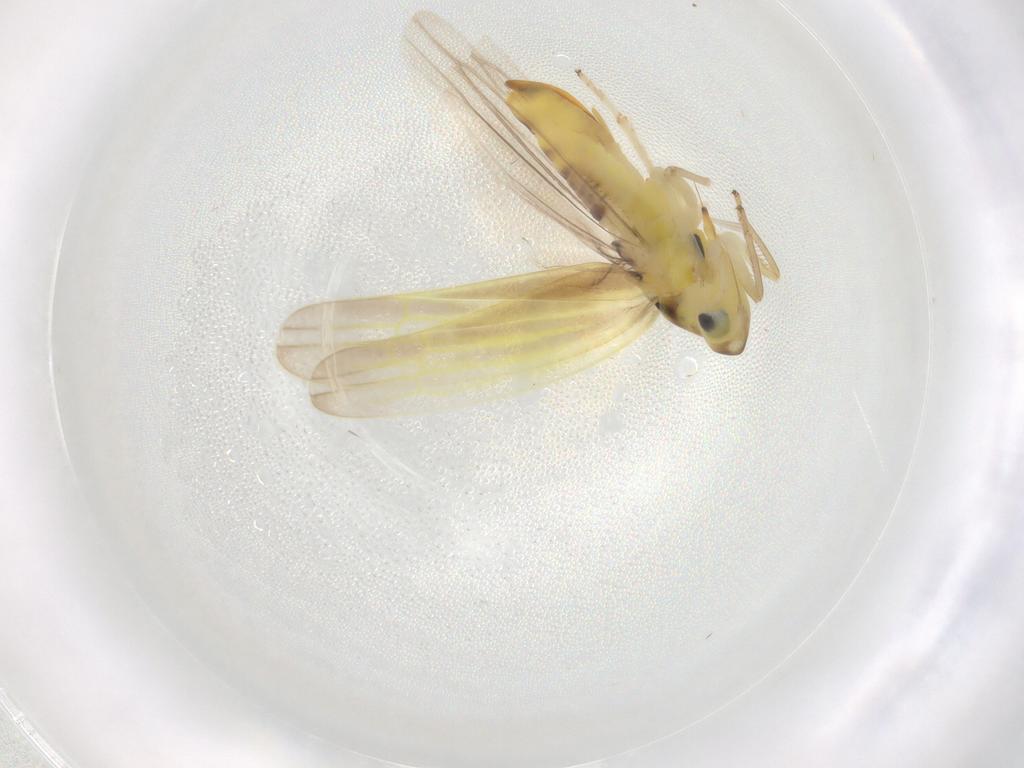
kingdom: Animalia
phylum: Arthropoda
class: Insecta
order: Hemiptera
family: Cicadellidae
